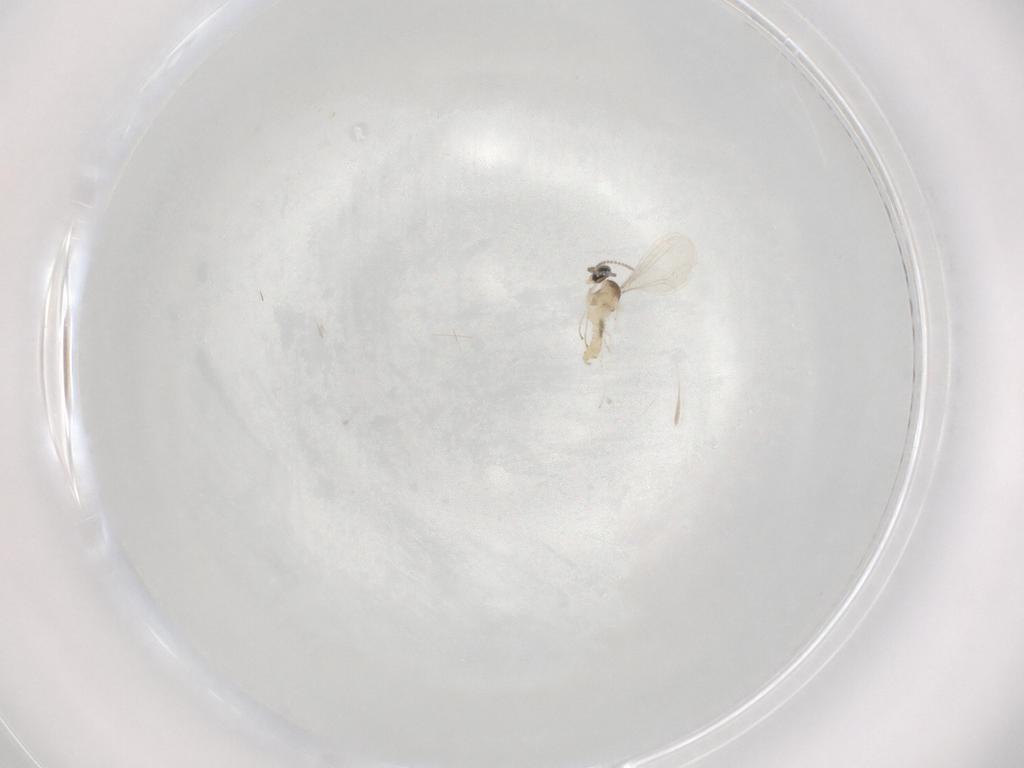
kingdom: Animalia
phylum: Arthropoda
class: Insecta
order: Diptera
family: Cecidomyiidae
